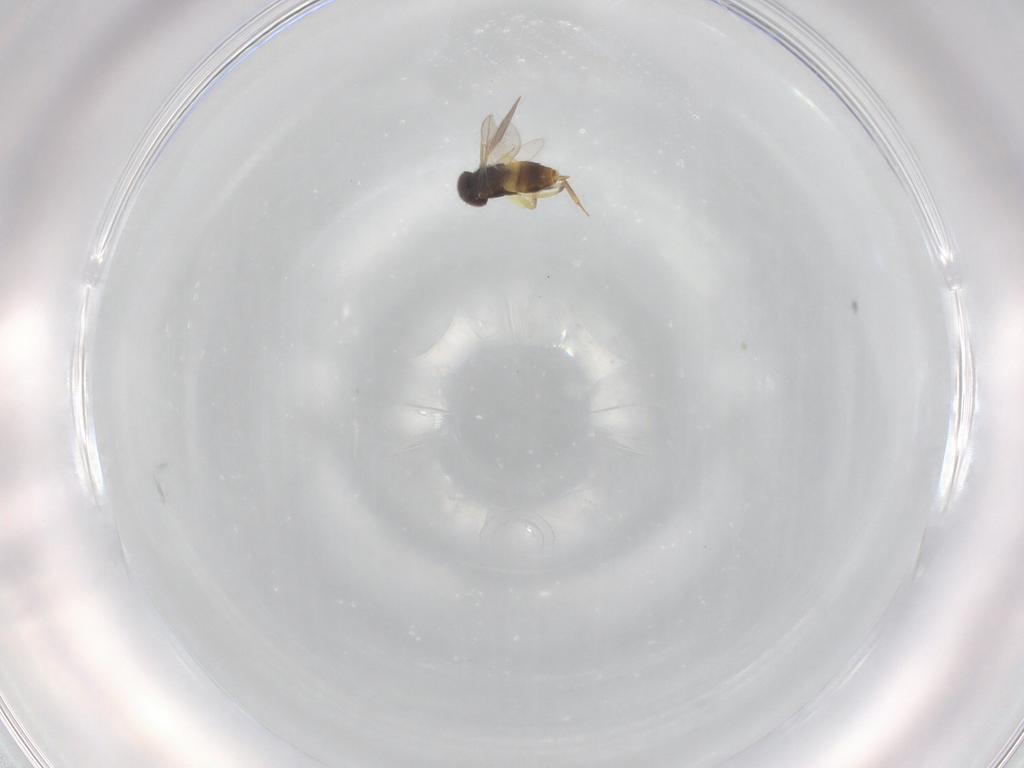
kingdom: Animalia
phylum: Arthropoda
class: Insecta
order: Hymenoptera
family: Aphelinidae
